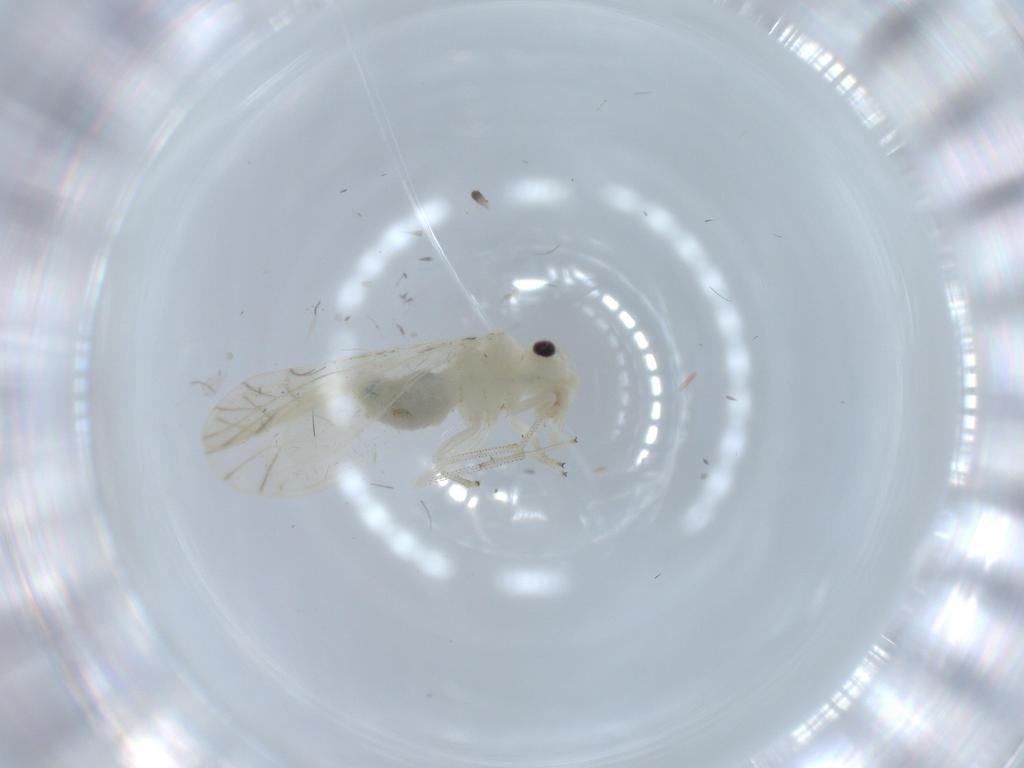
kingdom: Animalia
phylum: Arthropoda
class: Insecta
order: Psocodea
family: Caeciliusidae
